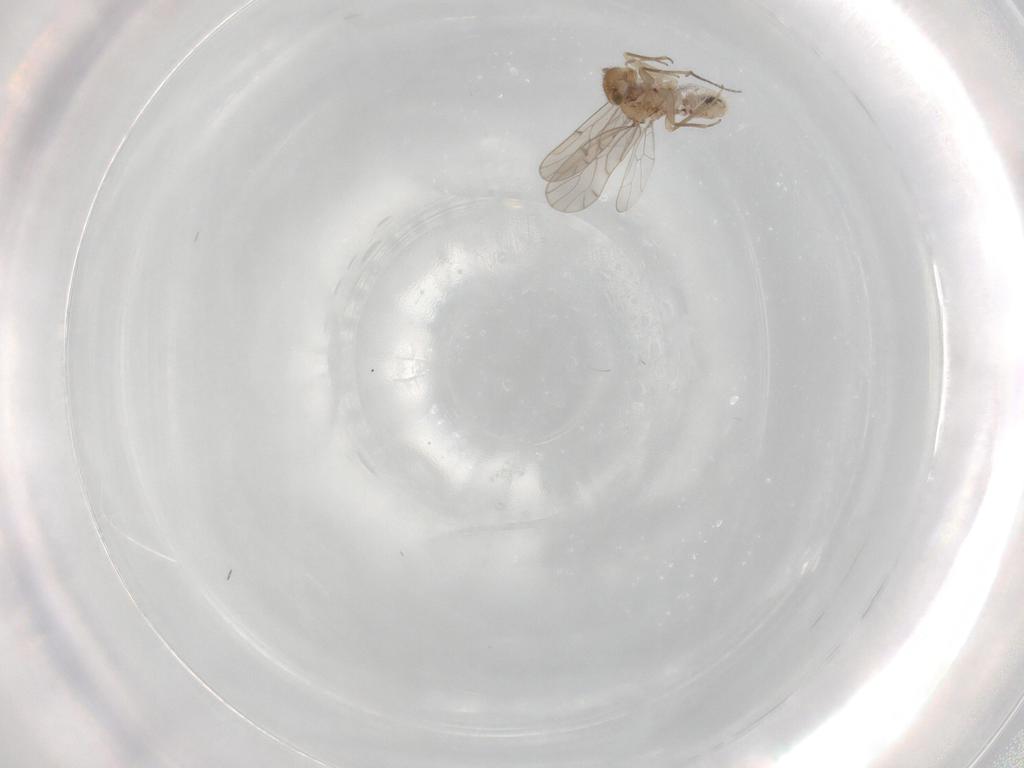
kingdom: Animalia
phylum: Arthropoda
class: Insecta
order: Psocodea
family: Ectopsocidae
